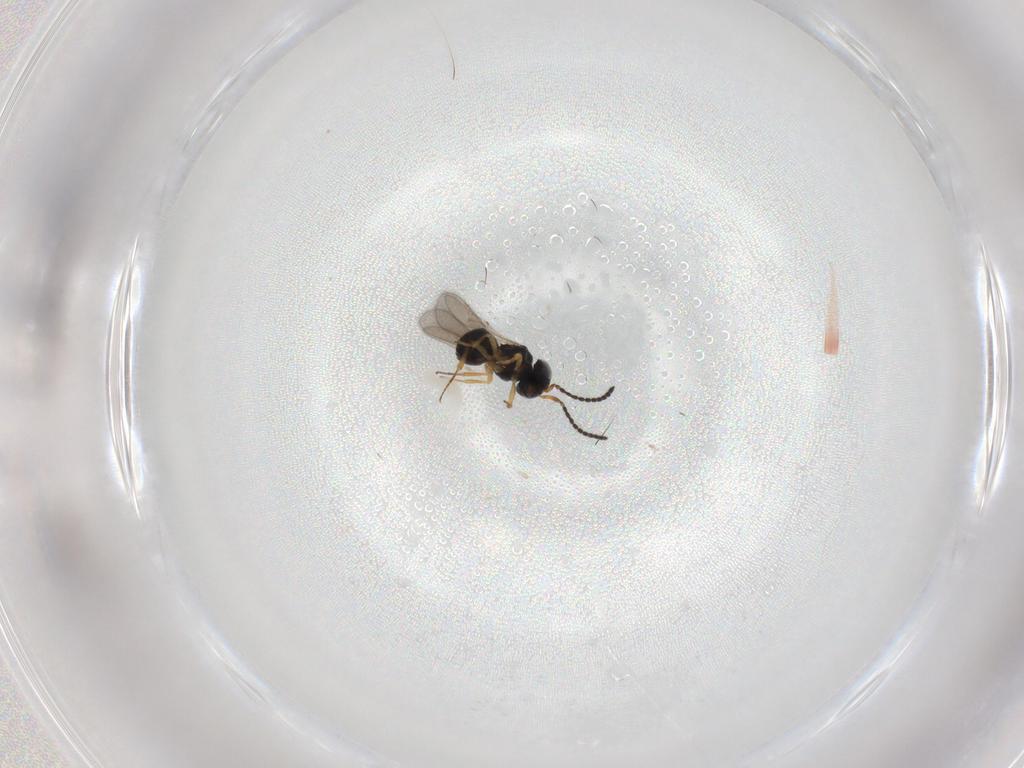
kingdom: Animalia
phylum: Arthropoda
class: Insecta
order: Hymenoptera
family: Scelionidae
